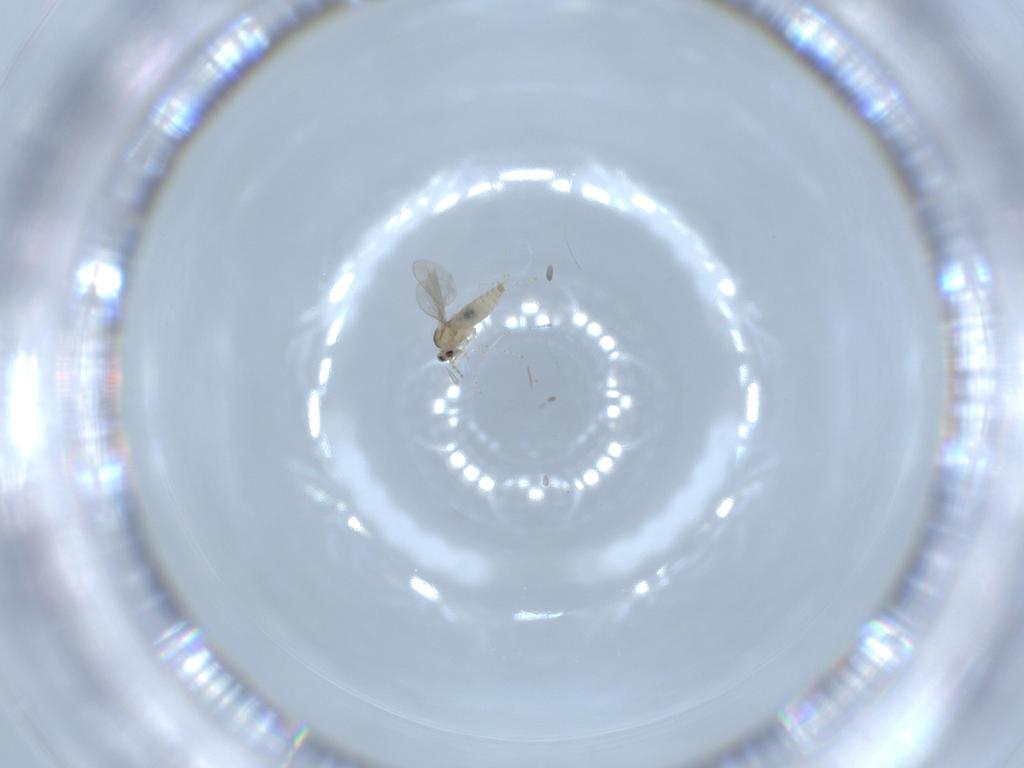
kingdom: Animalia
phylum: Arthropoda
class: Insecta
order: Diptera
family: Cecidomyiidae
